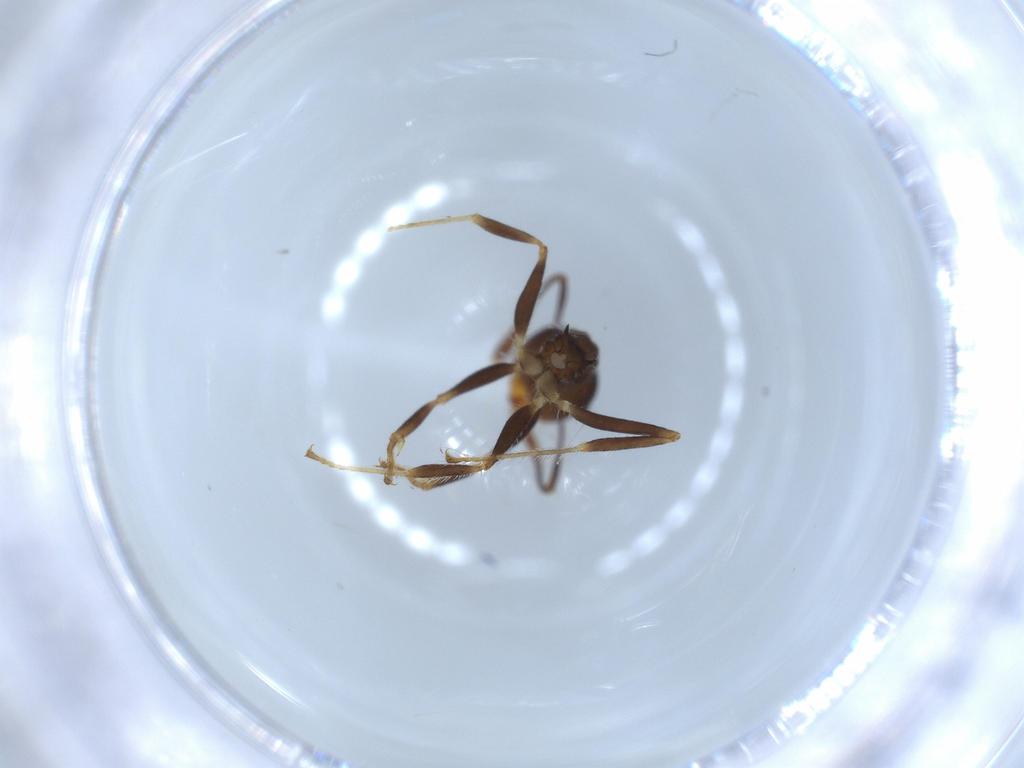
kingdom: Animalia
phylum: Arthropoda
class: Insecta
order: Hymenoptera
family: Formicidae
